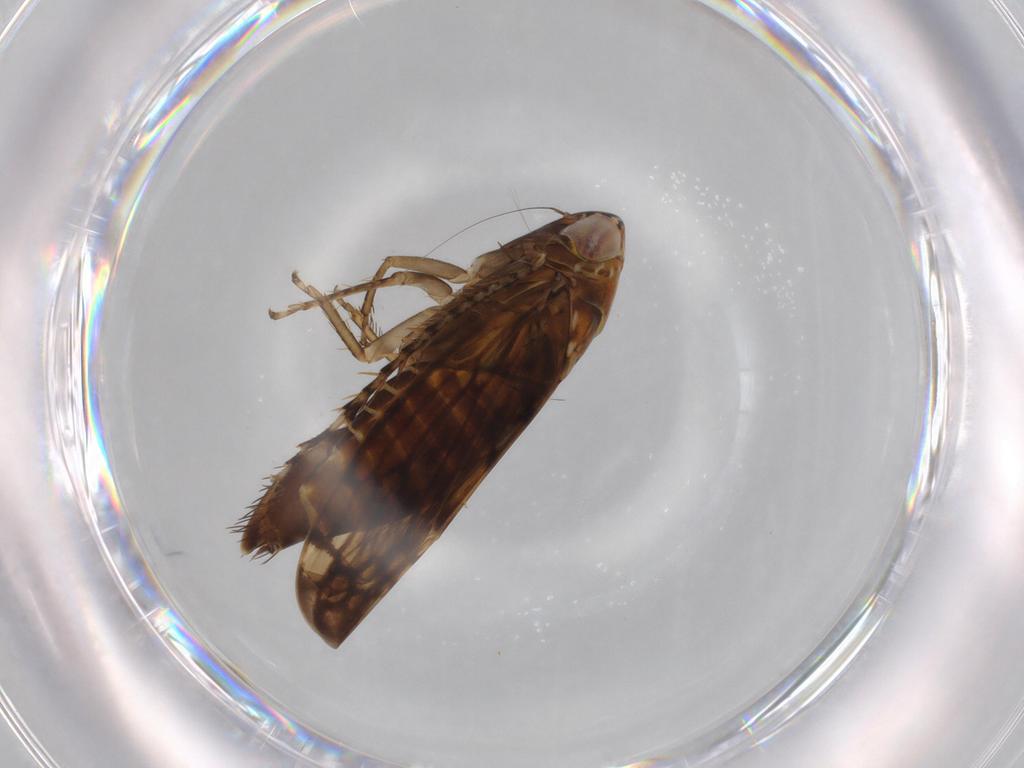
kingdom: Animalia
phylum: Arthropoda
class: Insecta
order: Hemiptera
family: Cicadellidae
